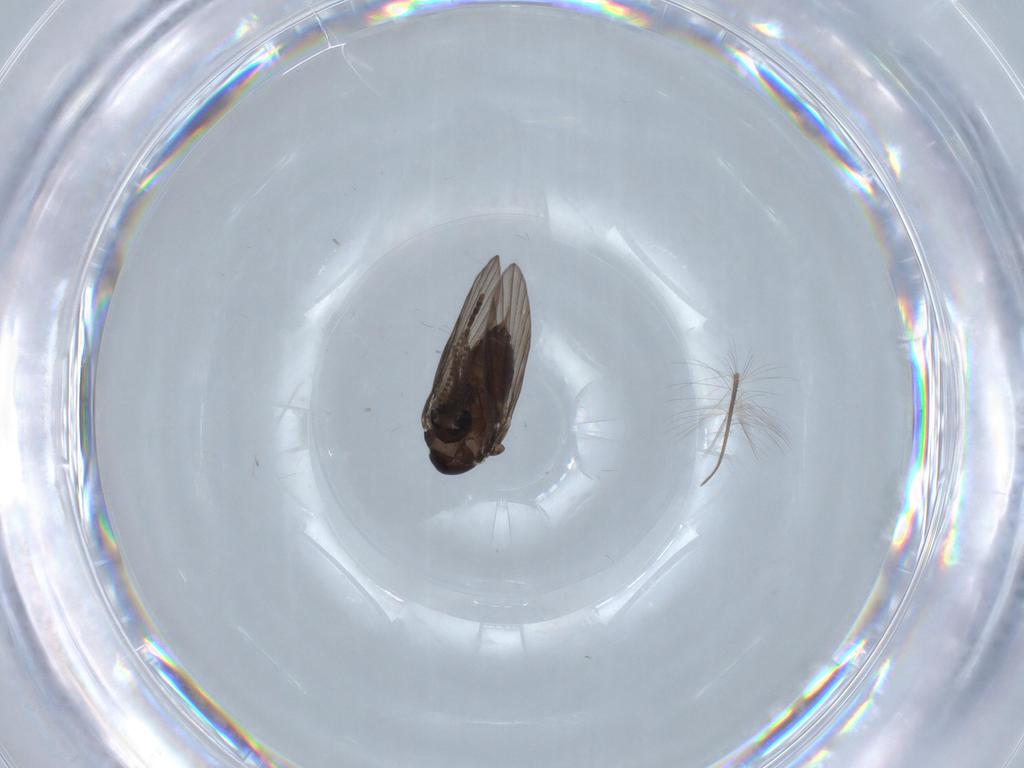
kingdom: Animalia
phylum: Arthropoda
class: Insecta
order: Diptera
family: Psychodidae
